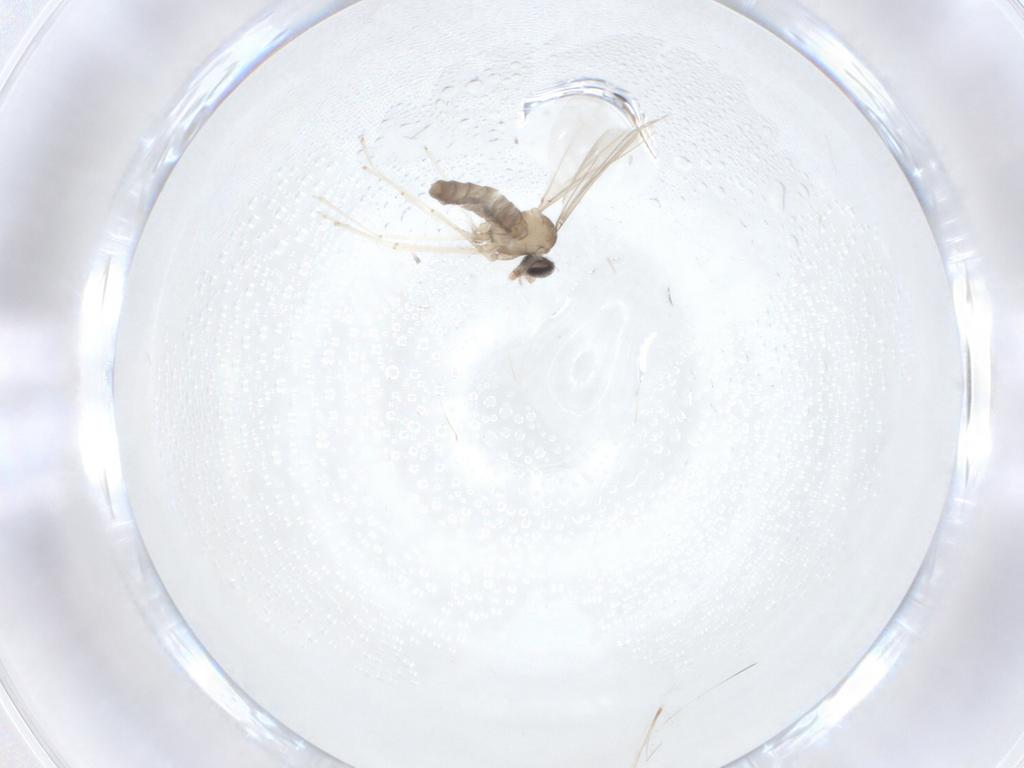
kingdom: Animalia
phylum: Arthropoda
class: Insecta
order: Diptera
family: Cecidomyiidae
